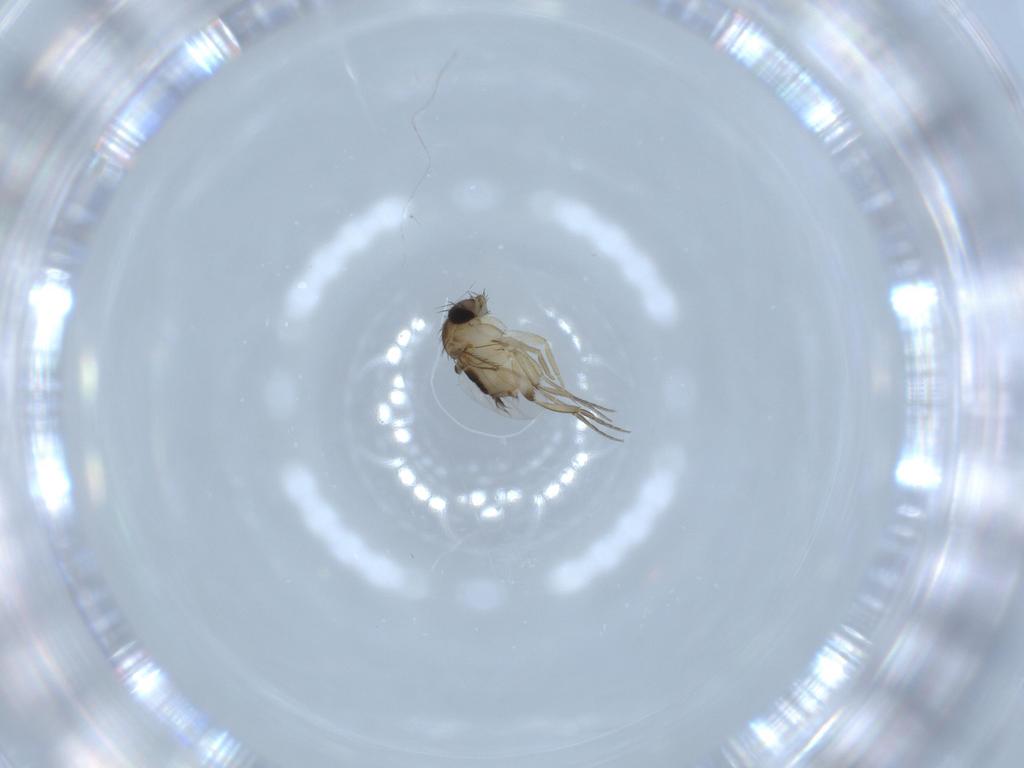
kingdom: Animalia
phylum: Arthropoda
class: Insecta
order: Diptera
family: Phoridae
